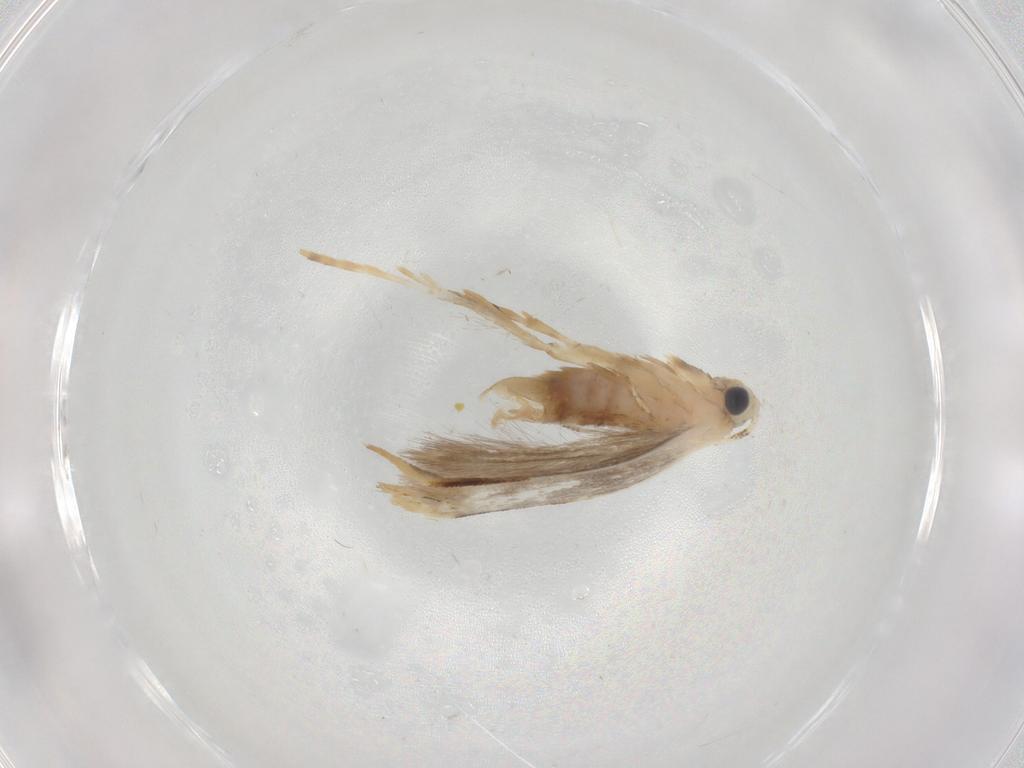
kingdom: Animalia
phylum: Arthropoda
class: Insecta
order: Lepidoptera
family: Dryadaulidae
